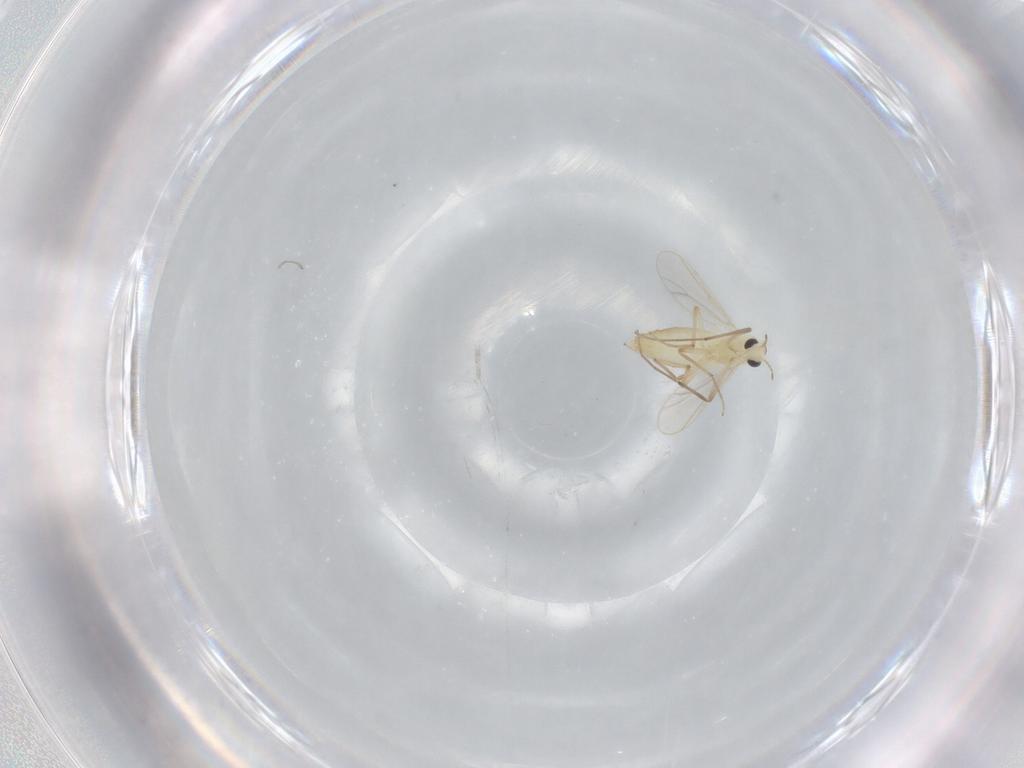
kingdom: Animalia
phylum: Arthropoda
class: Insecta
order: Diptera
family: Chironomidae
